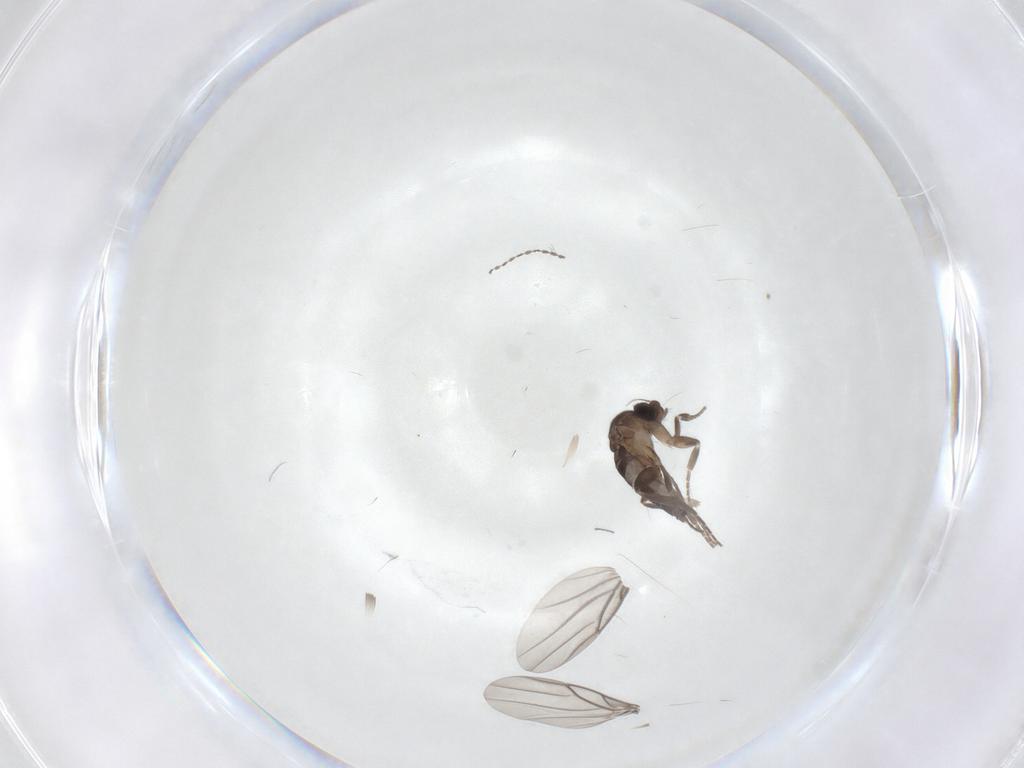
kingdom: Animalia
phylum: Arthropoda
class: Insecta
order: Diptera
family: Cecidomyiidae
